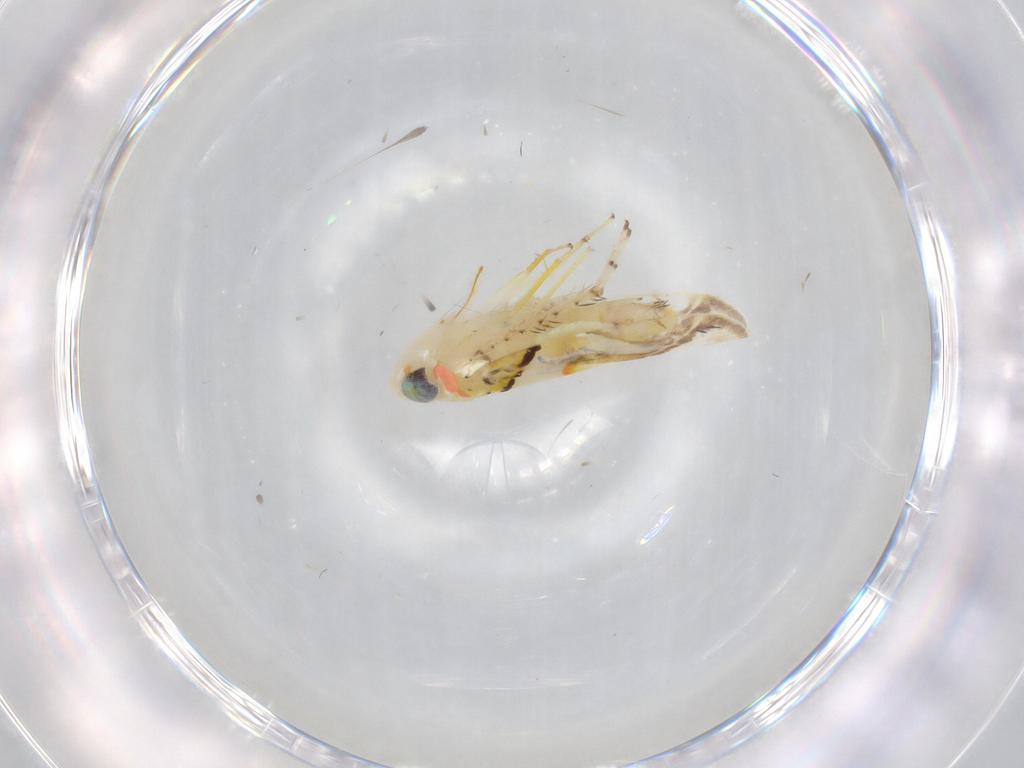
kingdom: Animalia
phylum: Arthropoda
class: Insecta
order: Hemiptera
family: Cicadellidae
